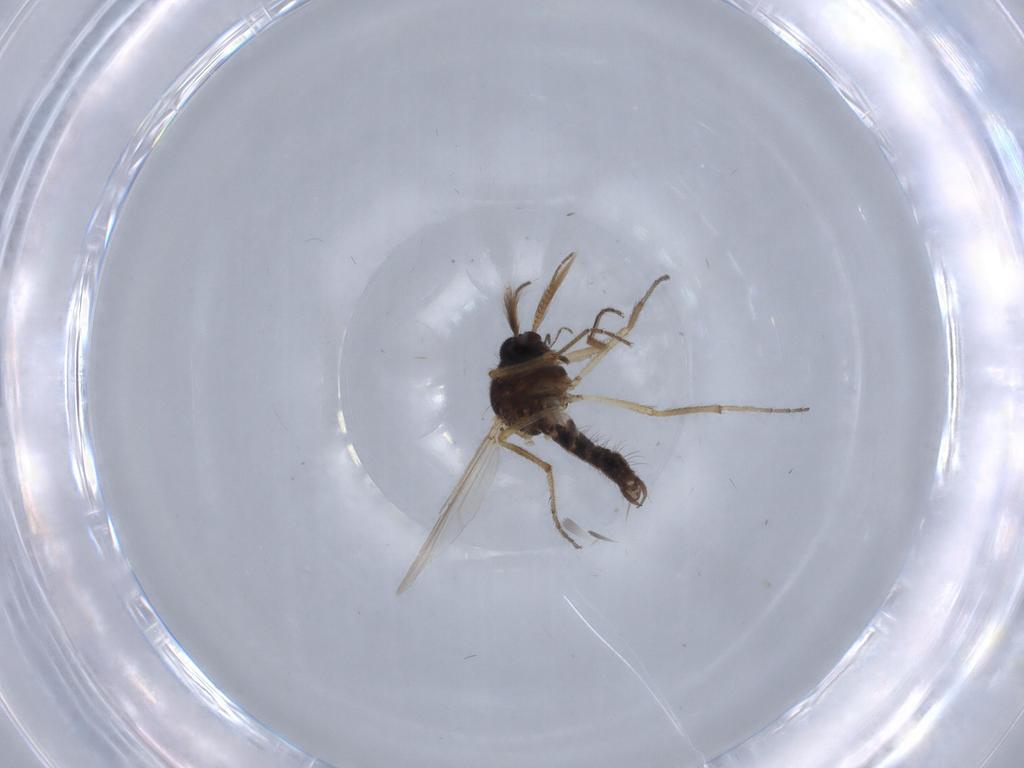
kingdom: Animalia
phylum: Arthropoda
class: Insecta
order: Diptera
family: Ceratopogonidae
